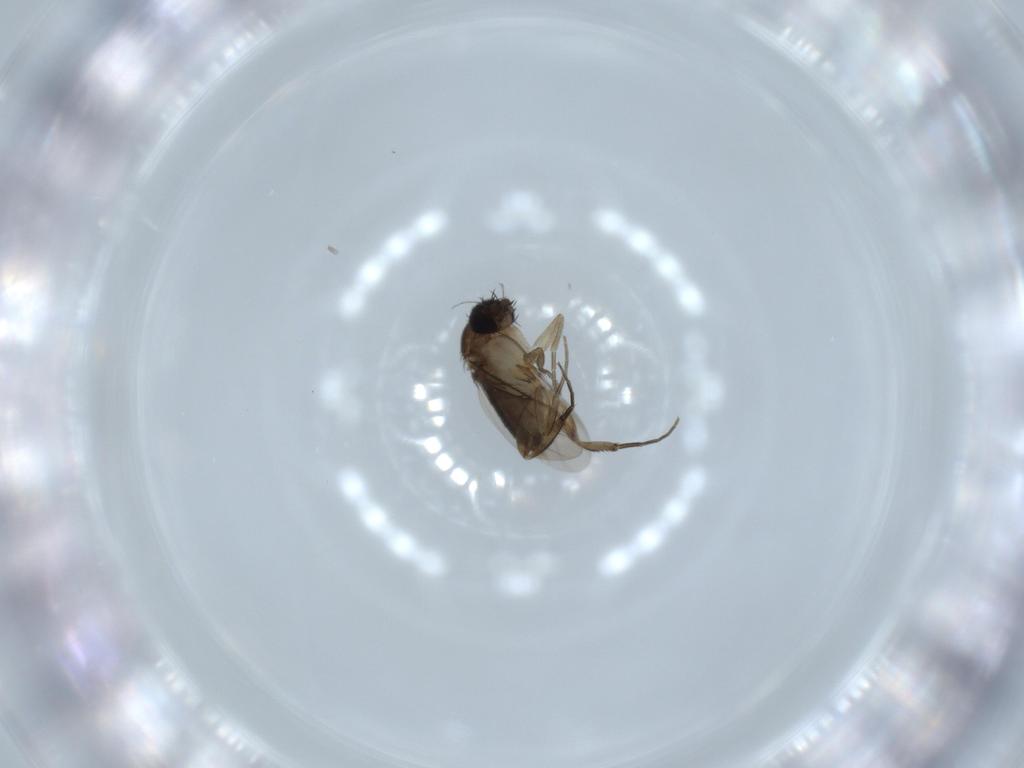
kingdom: Animalia
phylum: Arthropoda
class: Insecta
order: Diptera
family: Phoridae
